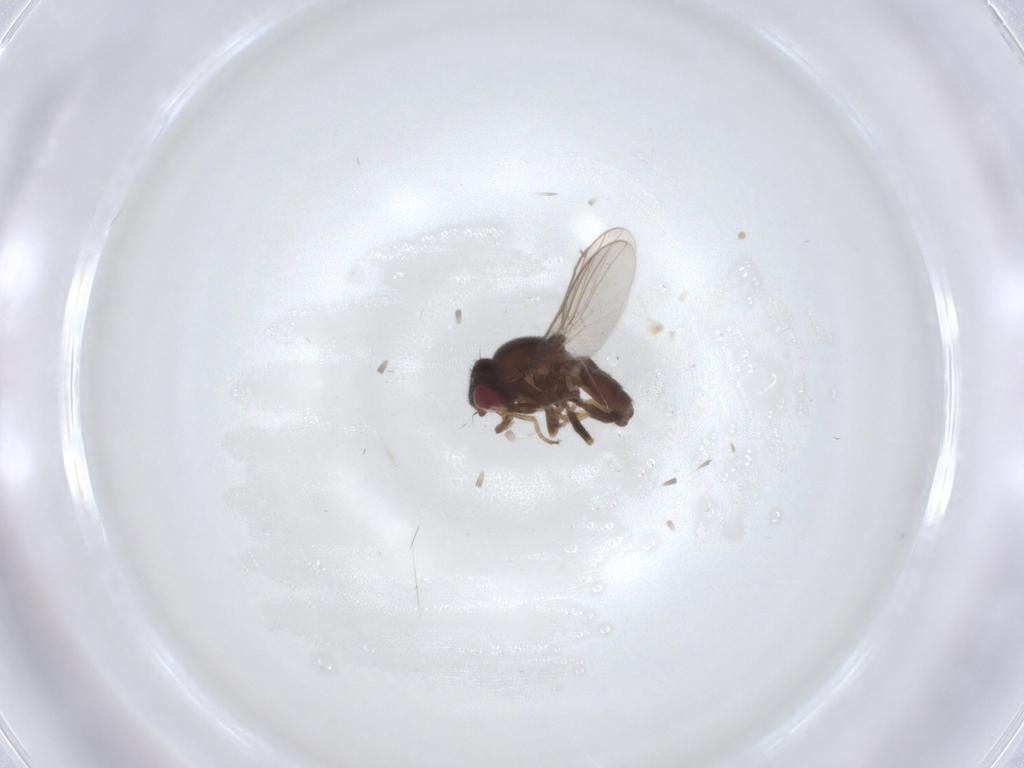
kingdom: Animalia
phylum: Arthropoda
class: Insecta
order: Diptera
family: Chloropidae
